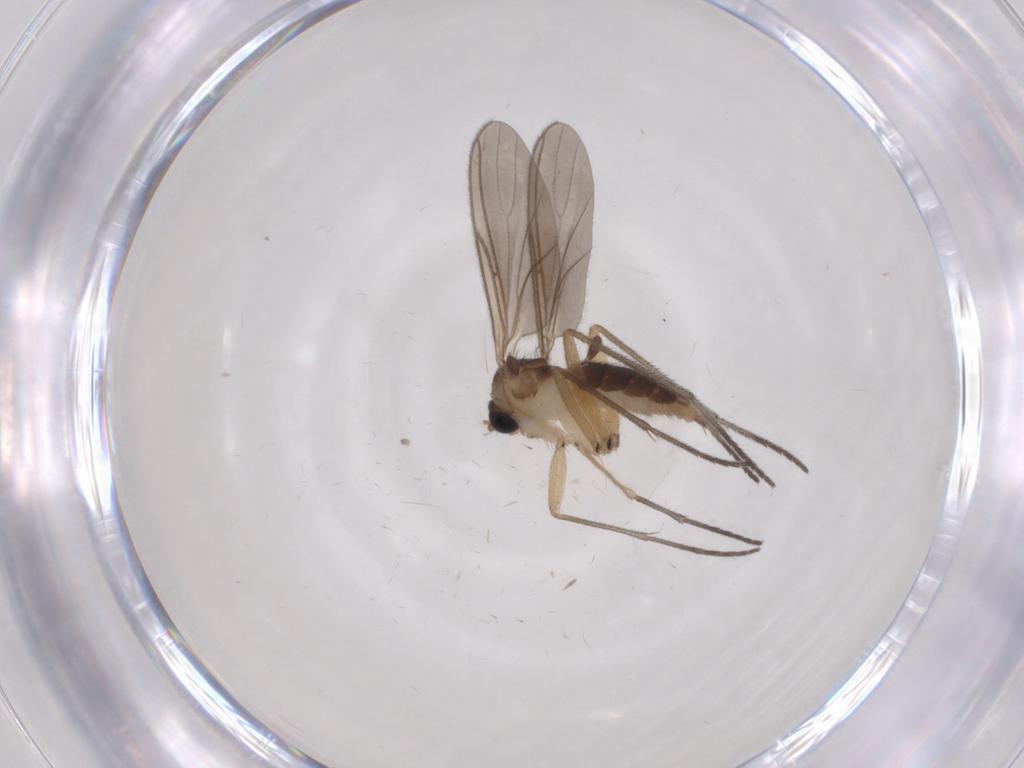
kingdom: Animalia
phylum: Arthropoda
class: Insecta
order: Diptera
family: Sciaridae
